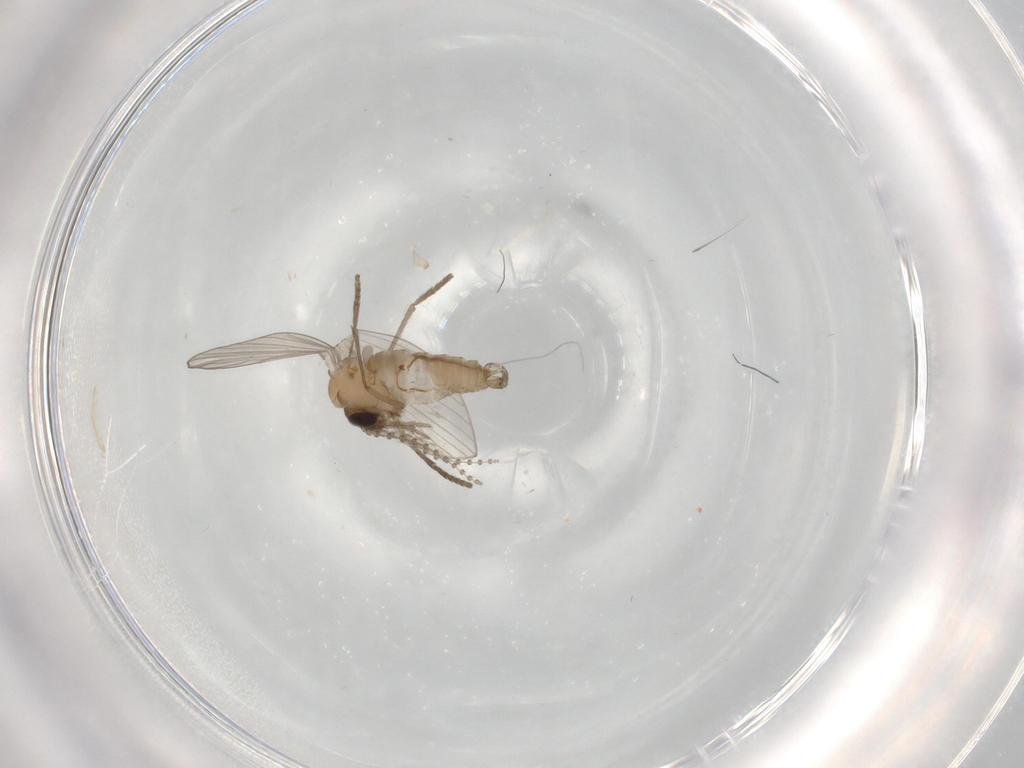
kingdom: Animalia
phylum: Arthropoda
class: Insecta
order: Diptera
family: Psychodidae
